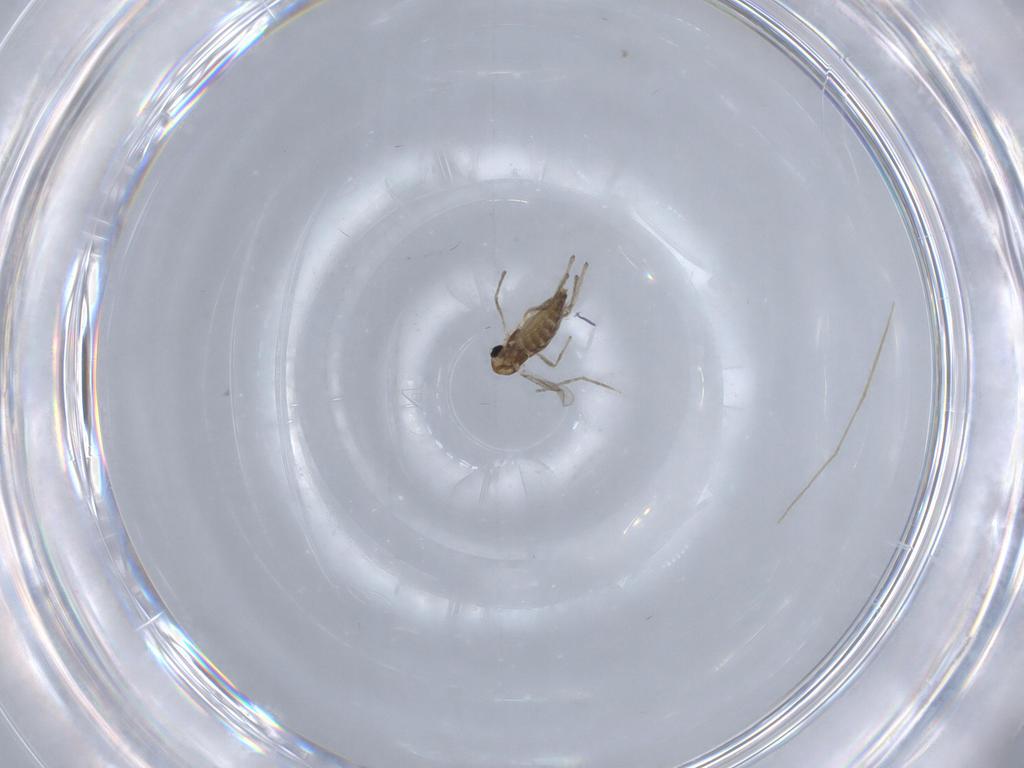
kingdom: Animalia
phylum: Arthropoda
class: Insecta
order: Diptera
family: Chironomidae
